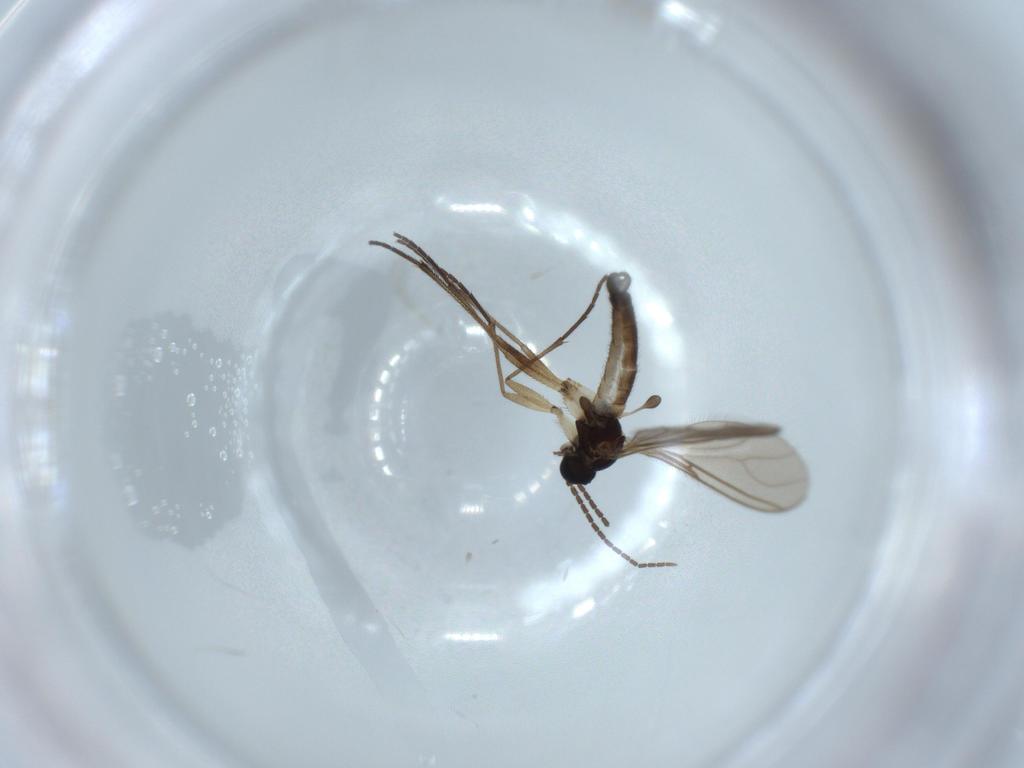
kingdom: Animalia
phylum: Arthropoda
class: Insecta
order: Diptera
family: Sciaridae
